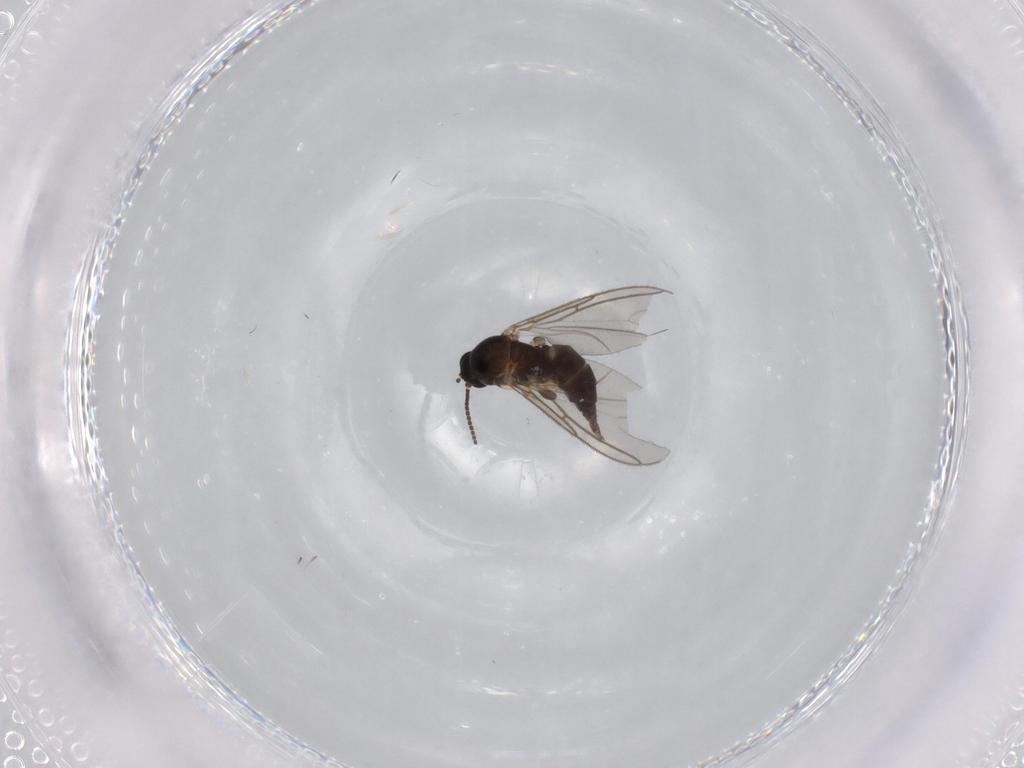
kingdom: Animalia
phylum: Arthropoda
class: Insecta
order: Diptera
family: Sciaridae
